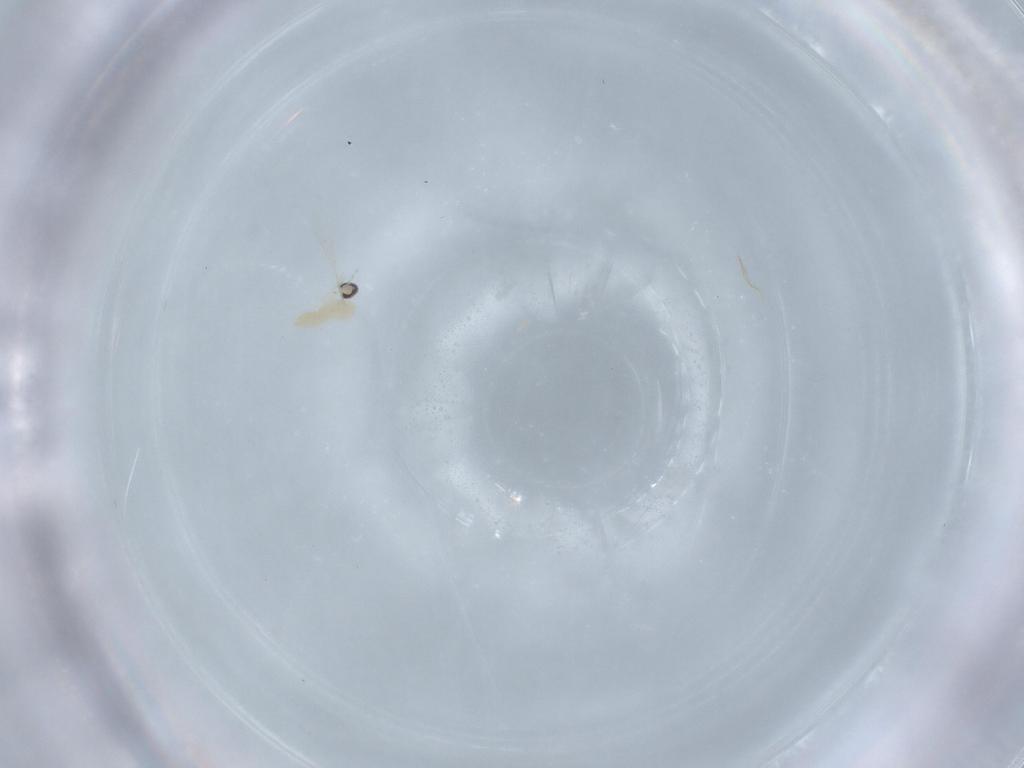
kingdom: Animalia
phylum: Arthropoda
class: Insecta
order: Diptera
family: Cecidomyiidae
